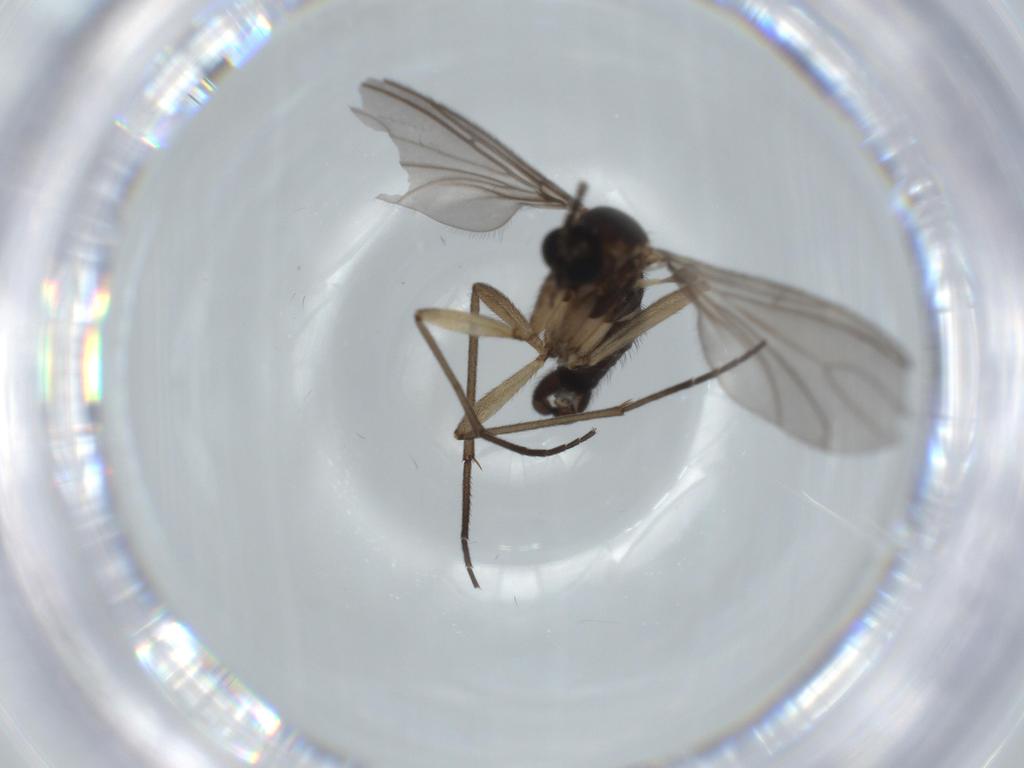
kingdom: Animalia
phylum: Arthropoda
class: Insecta
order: Diptera
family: Sciaridae
